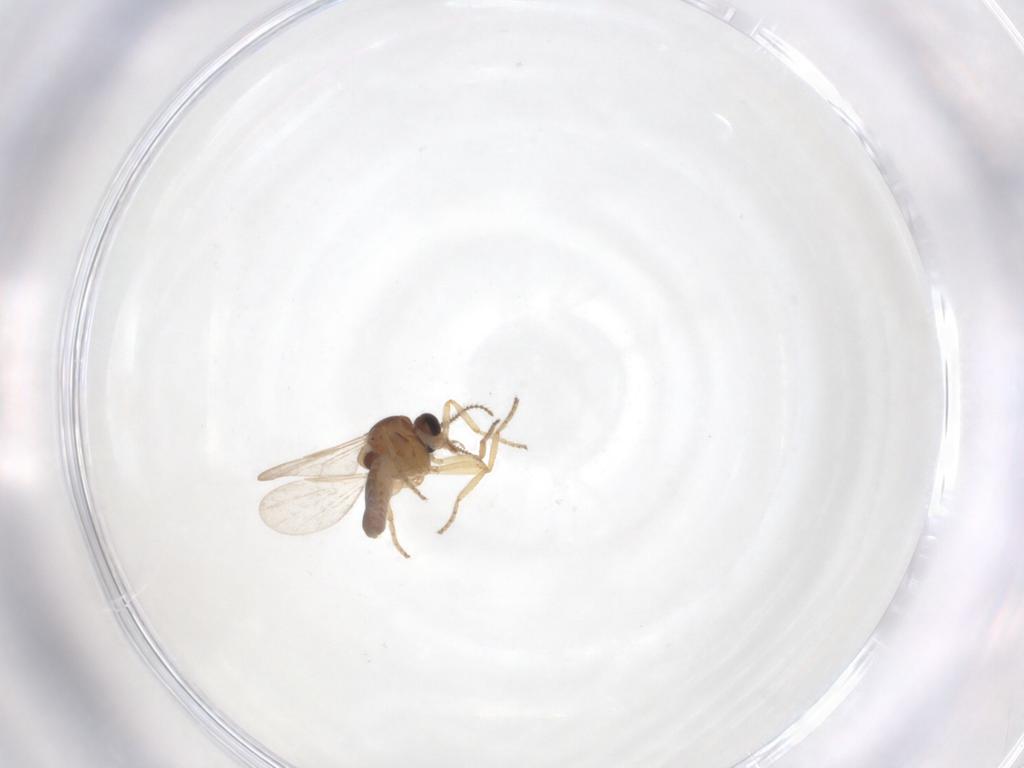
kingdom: Animalia
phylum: Arthropoda
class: Insecta
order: Diptera
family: Ceratopogonidae
